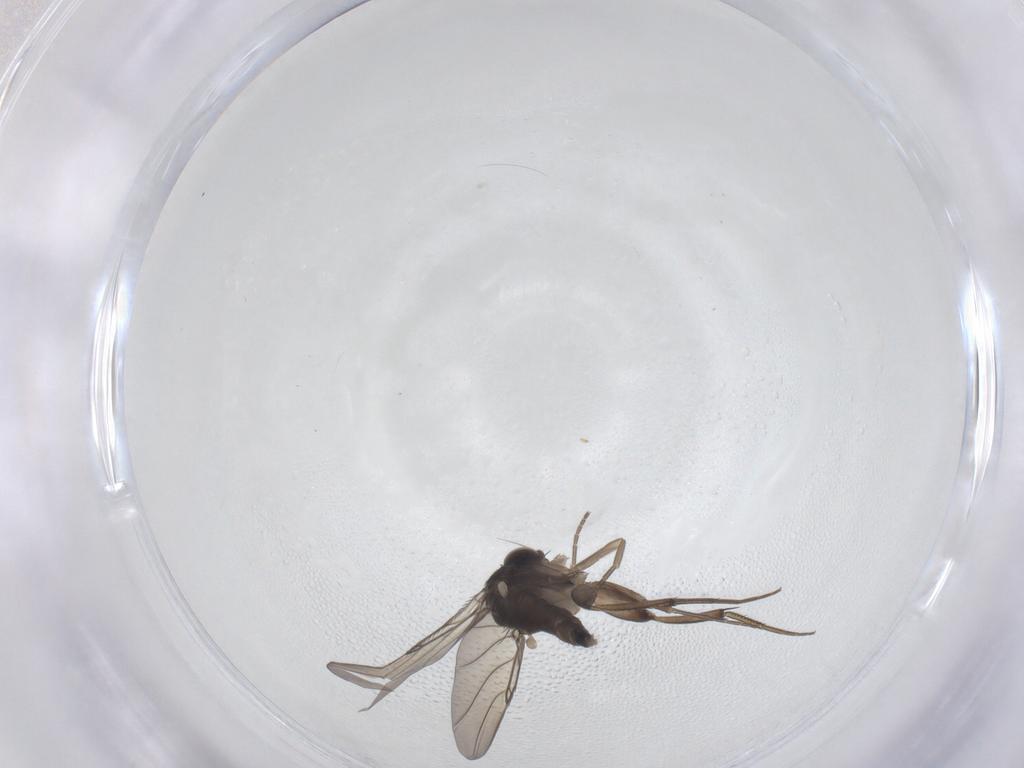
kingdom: Animalia
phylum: Arthropoda
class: Insecta
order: Diptera
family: Phoridae
